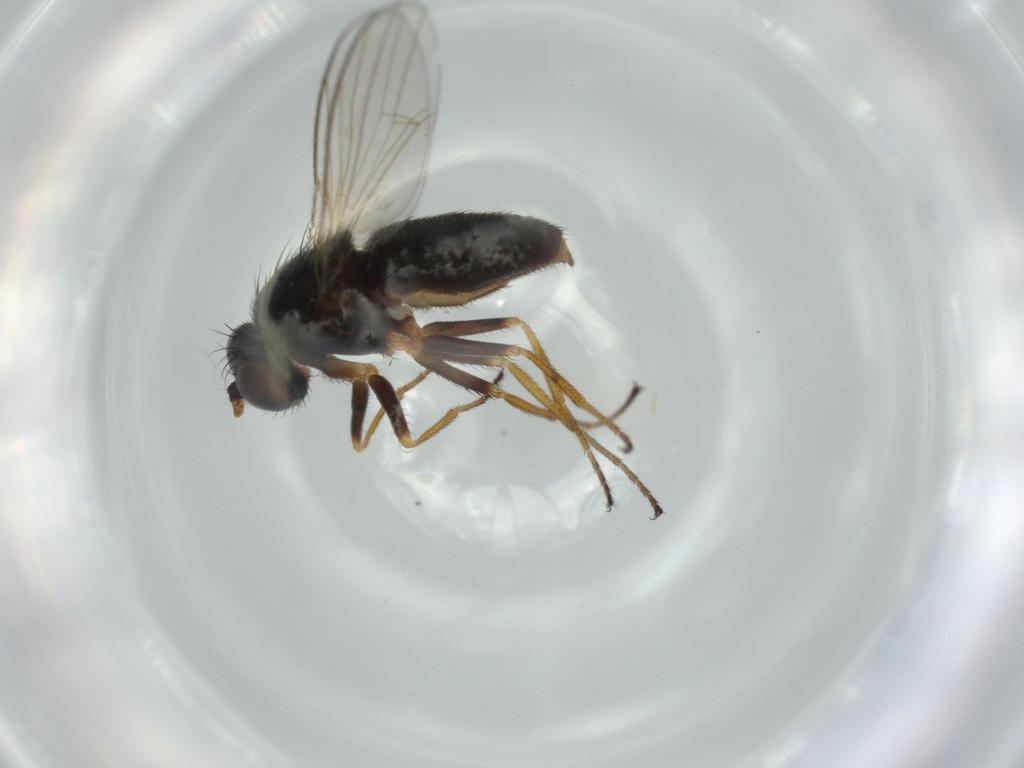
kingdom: Animalia
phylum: Arthropoda
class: Insecta
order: Diptera
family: Ephydridae
